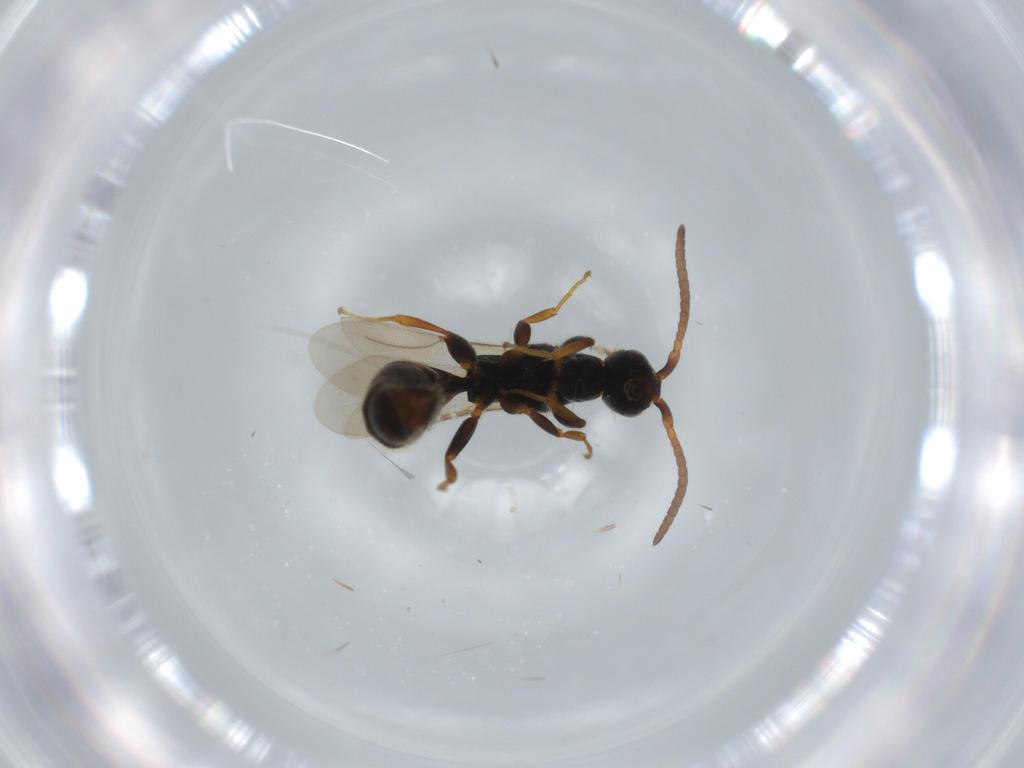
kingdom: Animalia
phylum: Arthropoda
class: Insecta
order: Hymenoptera
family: Bethylidae
